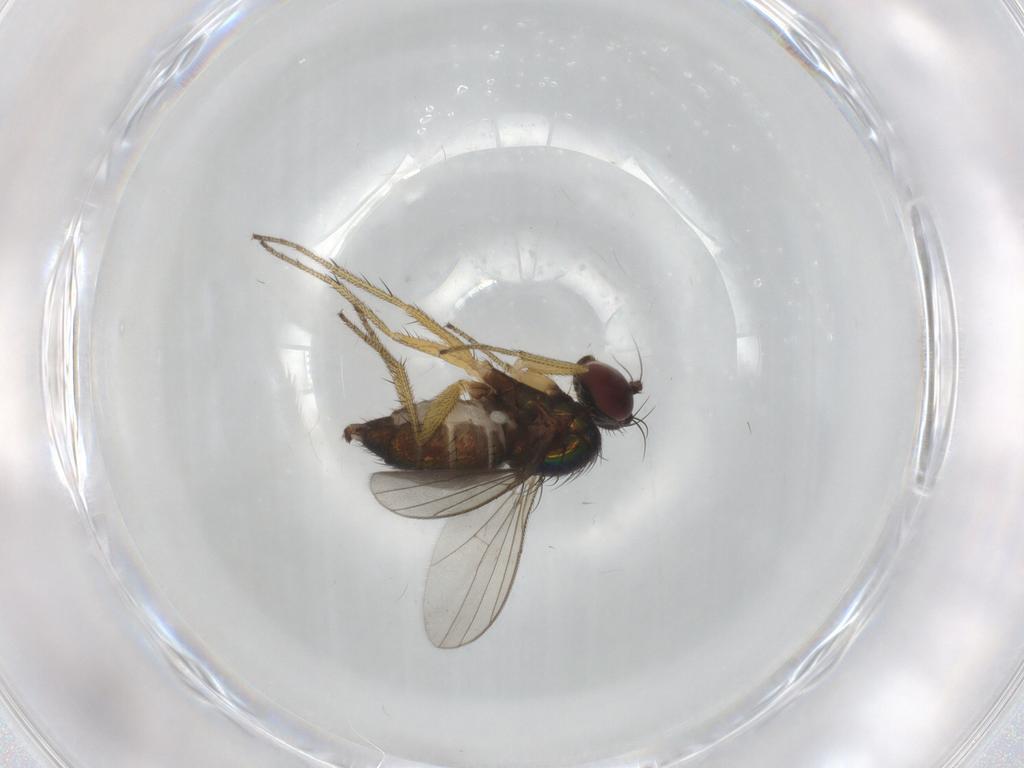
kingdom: Animalia
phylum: Arthropoda
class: Insecta
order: Diptera
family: Dolichopodidae
